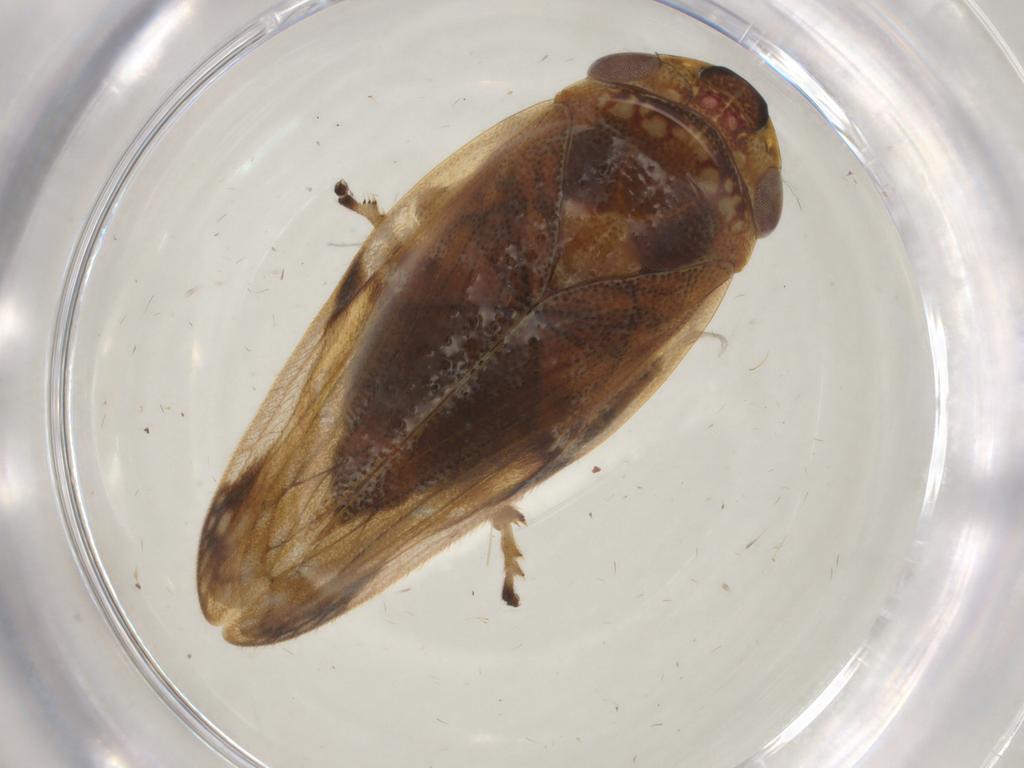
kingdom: Animalia
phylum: Arthropoda
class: Insecta
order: Hemiptera
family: Aphrophoridae
